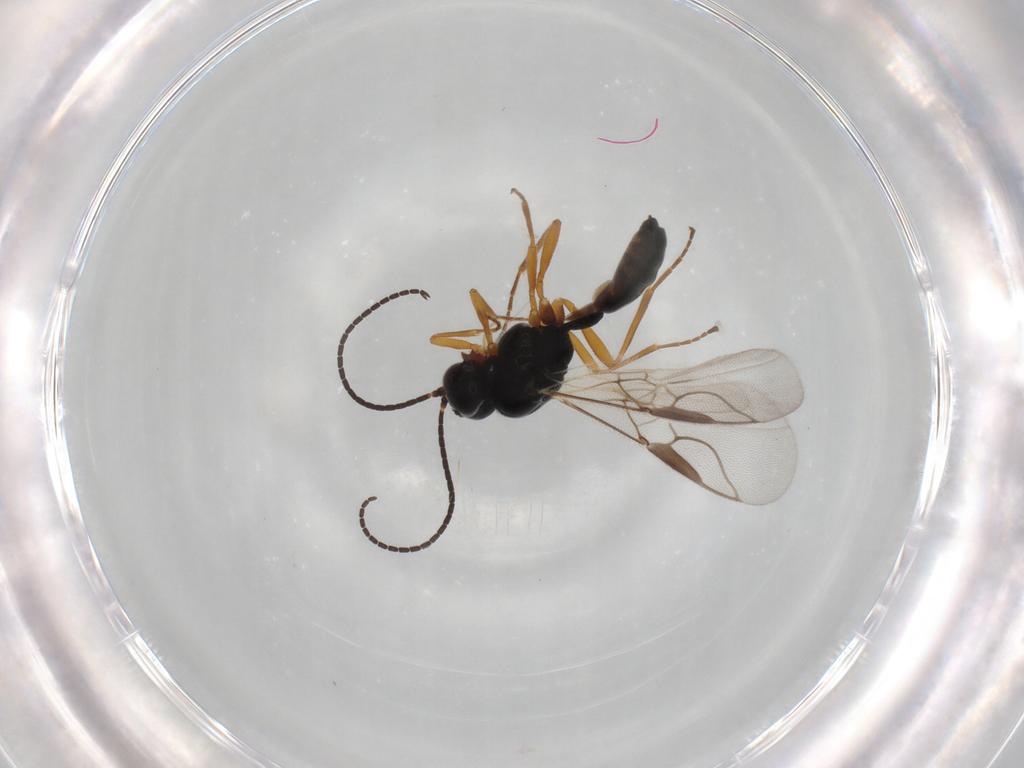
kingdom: Animalia
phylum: Arthropoda
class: Insecta
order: Hymenoptera
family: Braconidae
